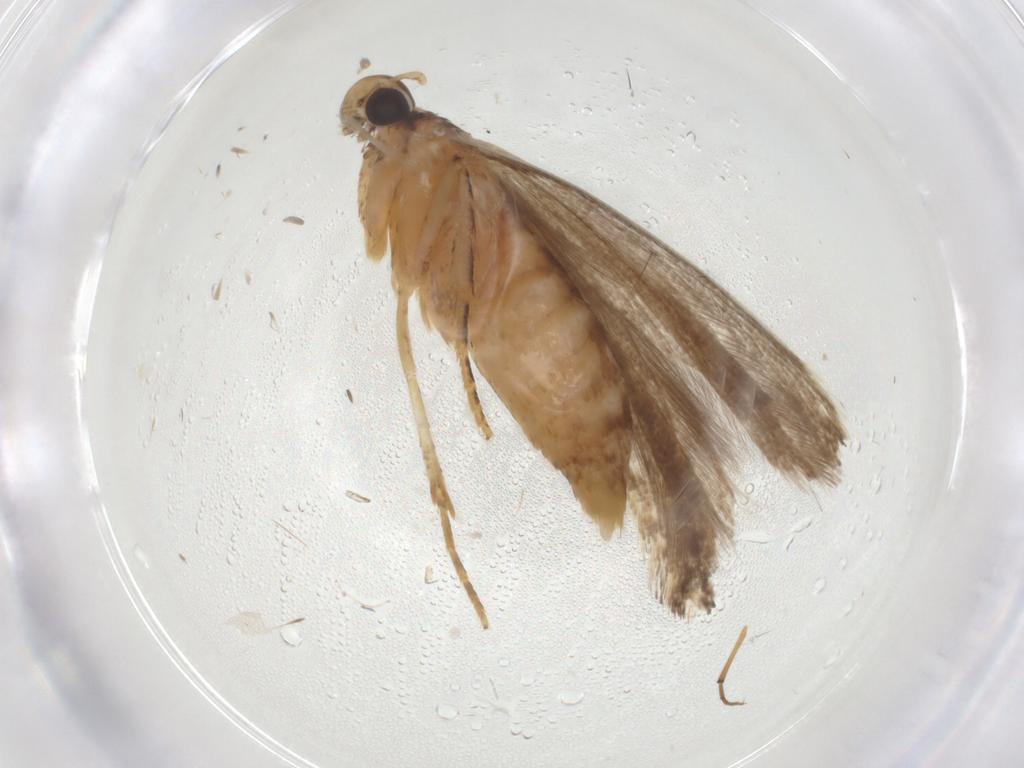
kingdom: Animalia
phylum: Arthropoda
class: Insecta
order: Lepidoptera
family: Gelechiidae
